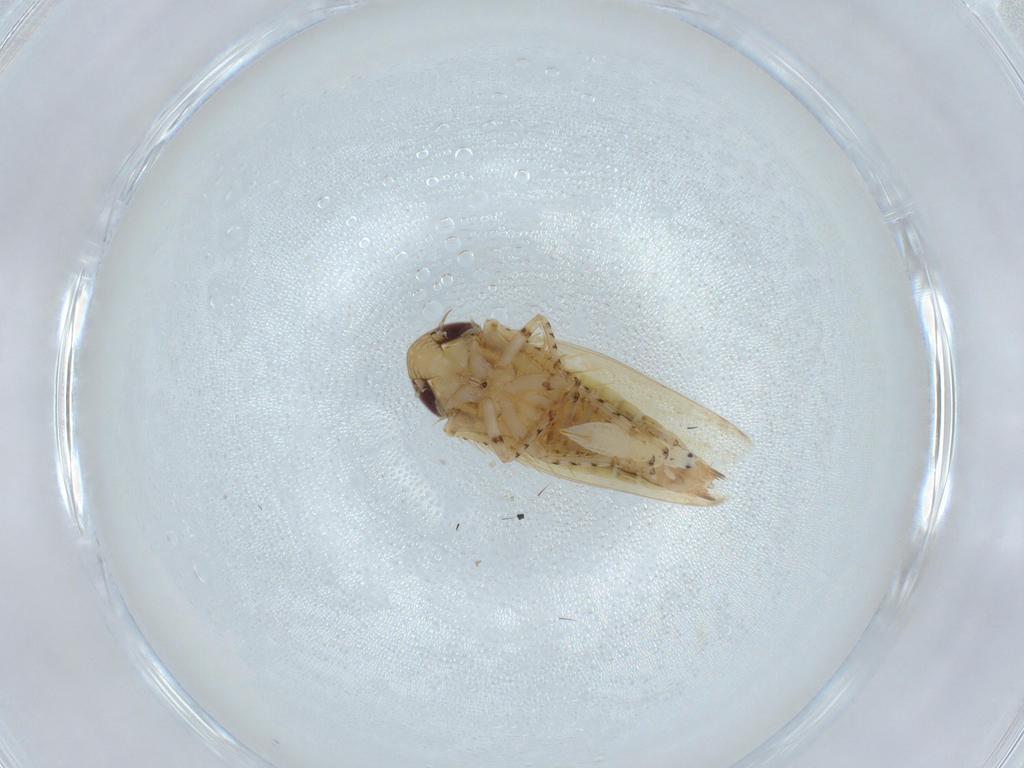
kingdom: Animalia
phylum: Arthropoda
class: Insecta
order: Hemiptera
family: Cicadellidae
